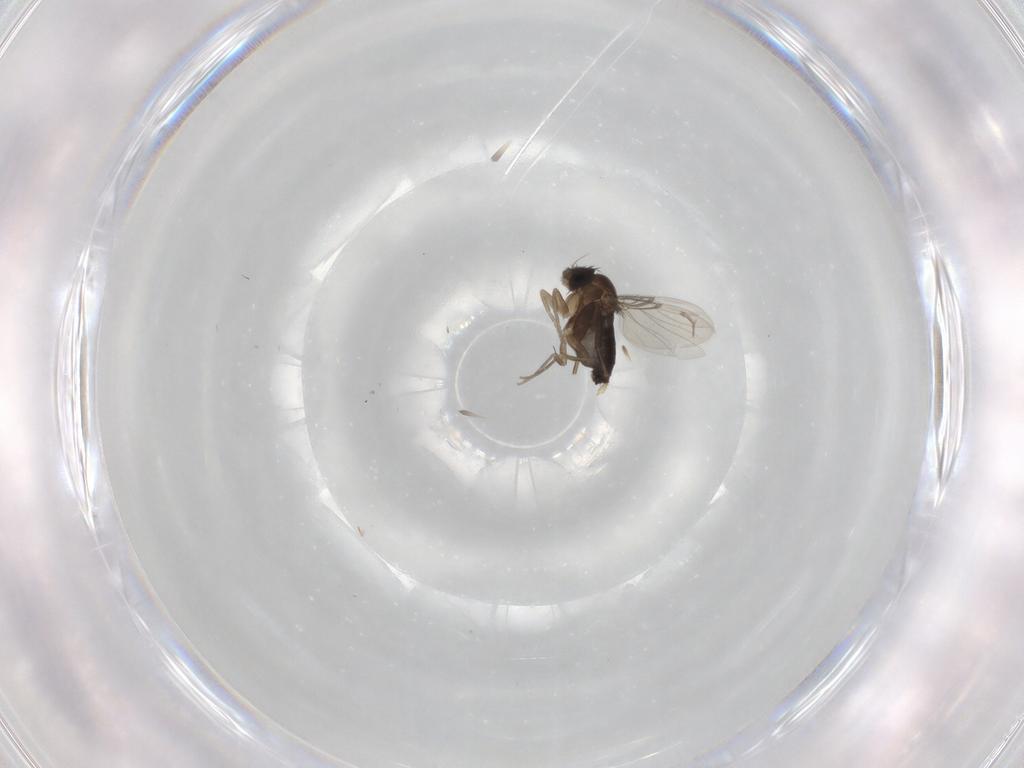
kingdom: Animalia
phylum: Arthropoda
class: Insecta
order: Diptera
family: Phoridae
